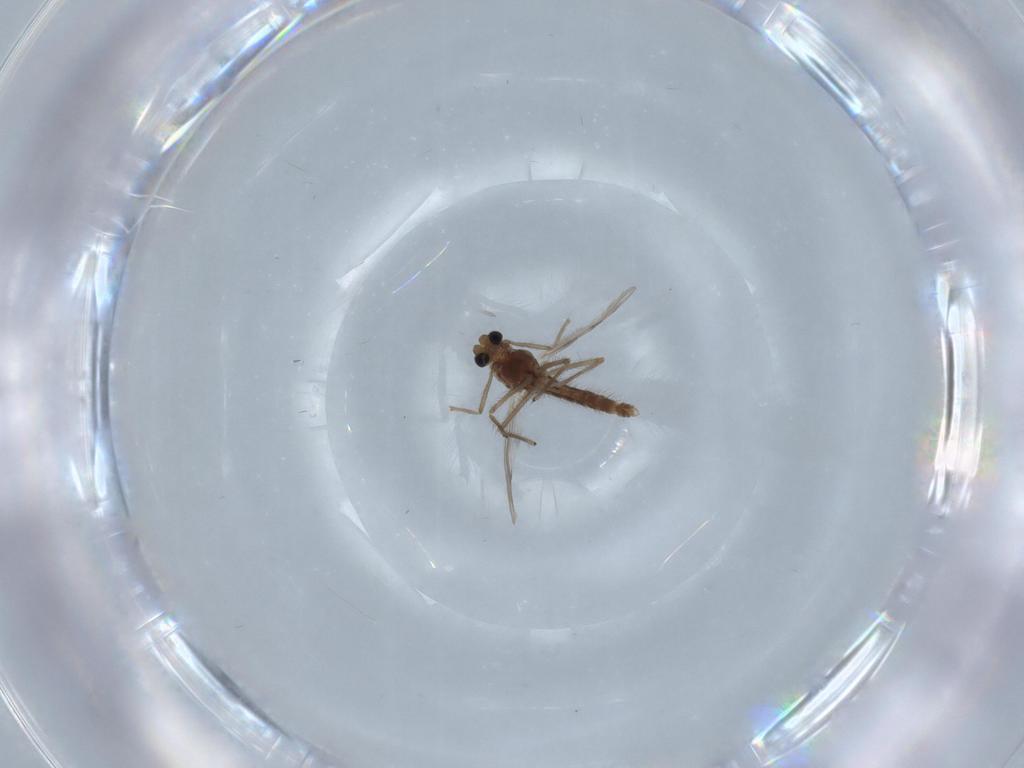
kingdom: Animalia
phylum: Arthropoda
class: Insecta
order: Diptera
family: Chironomidae
